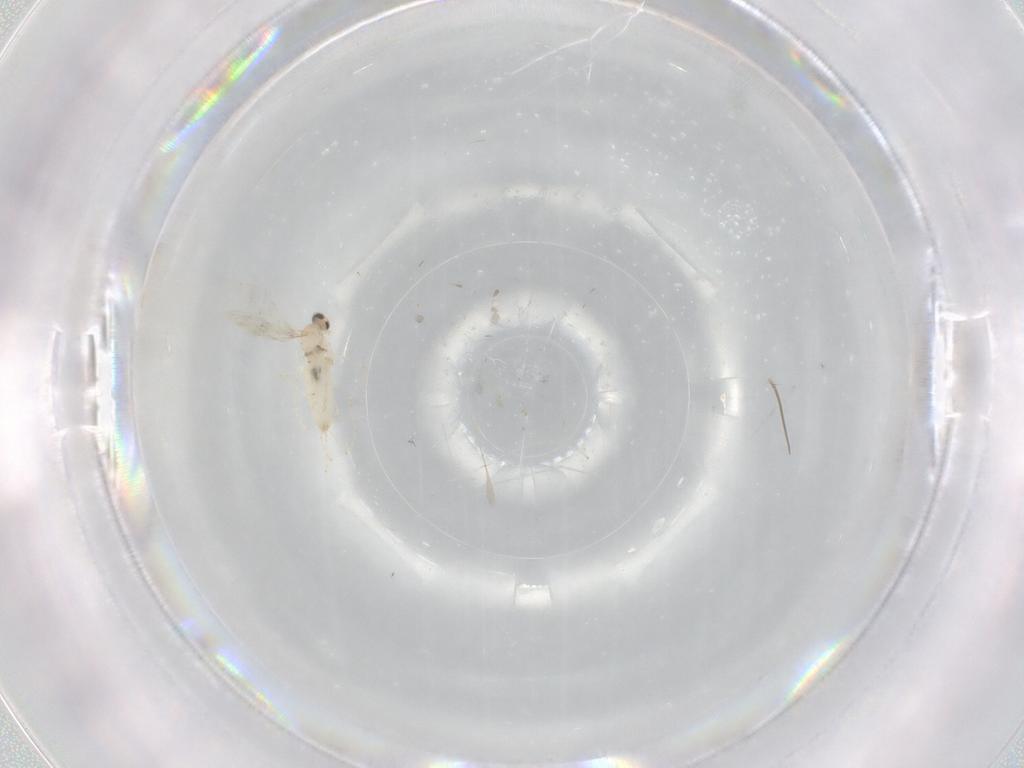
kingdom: Animalia
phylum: Arthropoda
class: Insecta
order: Diptera
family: Cecidomyiidae
